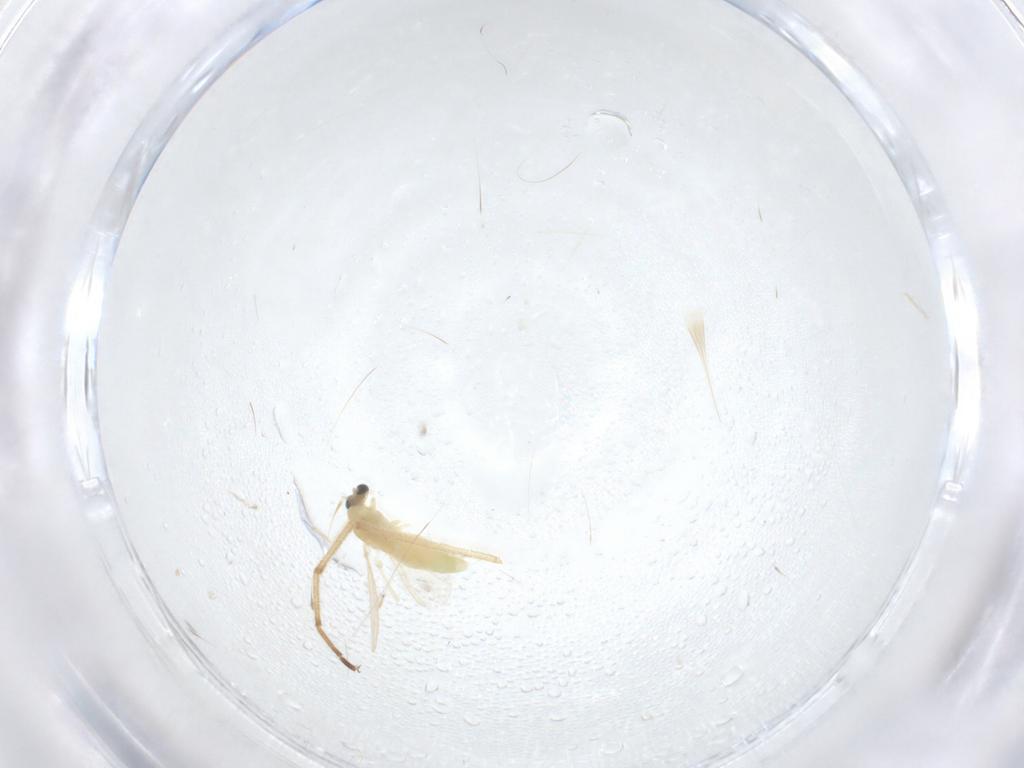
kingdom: Animalia
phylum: Arthropoda
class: Insecta
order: Diptera
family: Chironomidae
